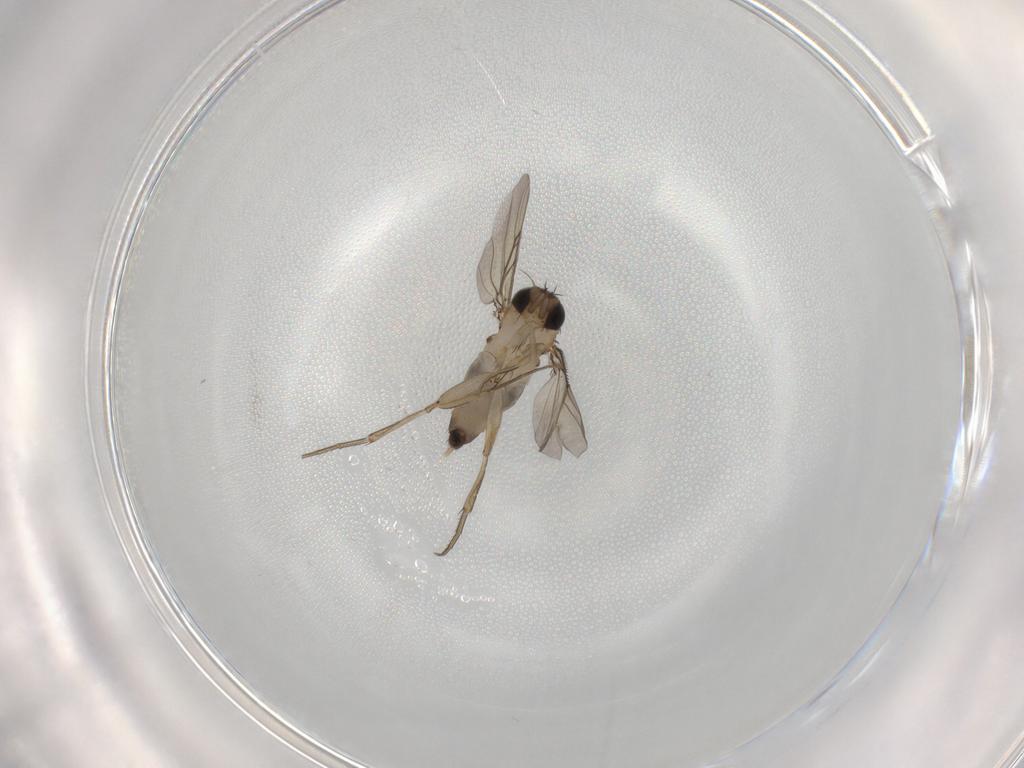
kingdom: Animalia
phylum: Arthropoda
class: Insecta
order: Diptera
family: Phoridae
